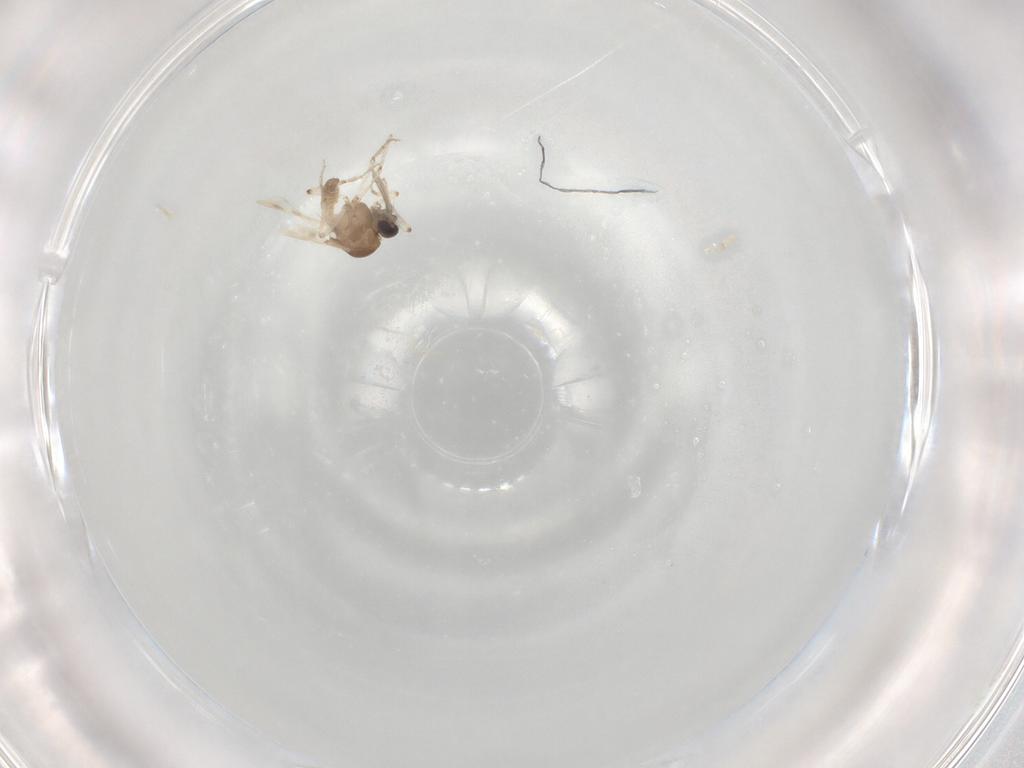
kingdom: Animalia
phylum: Arthropoda
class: Insecta
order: Diptera
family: Ceratopogonidae
